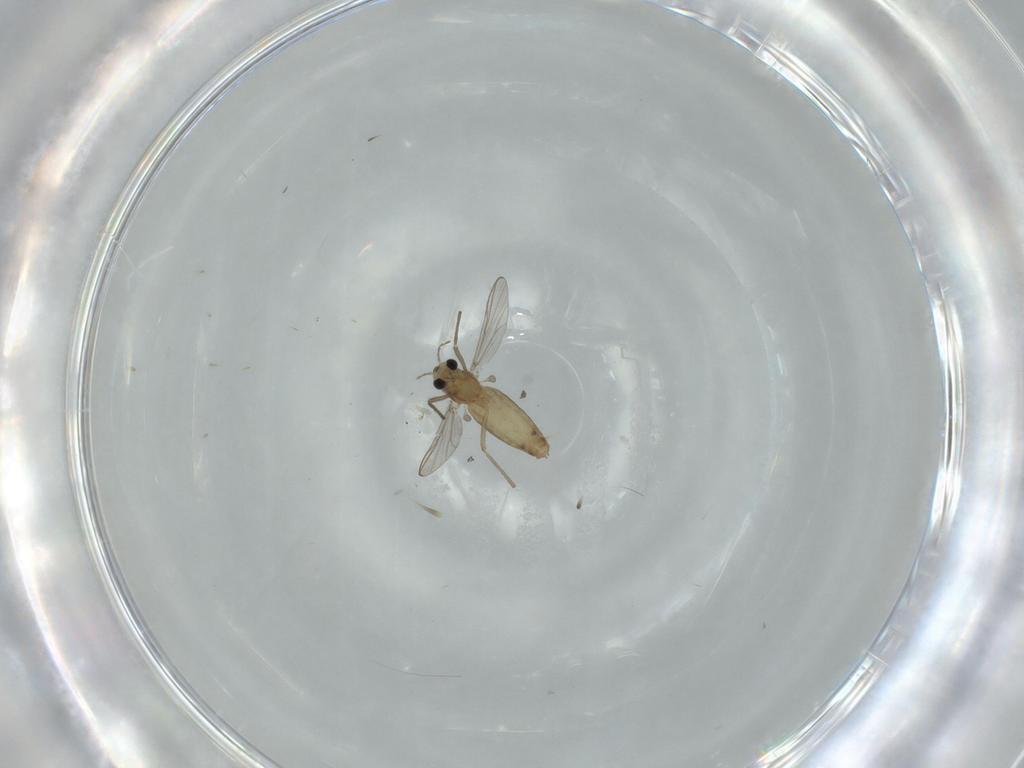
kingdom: Animalia
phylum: Arthropoda
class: Insecta
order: Diptera
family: Chironomidae
